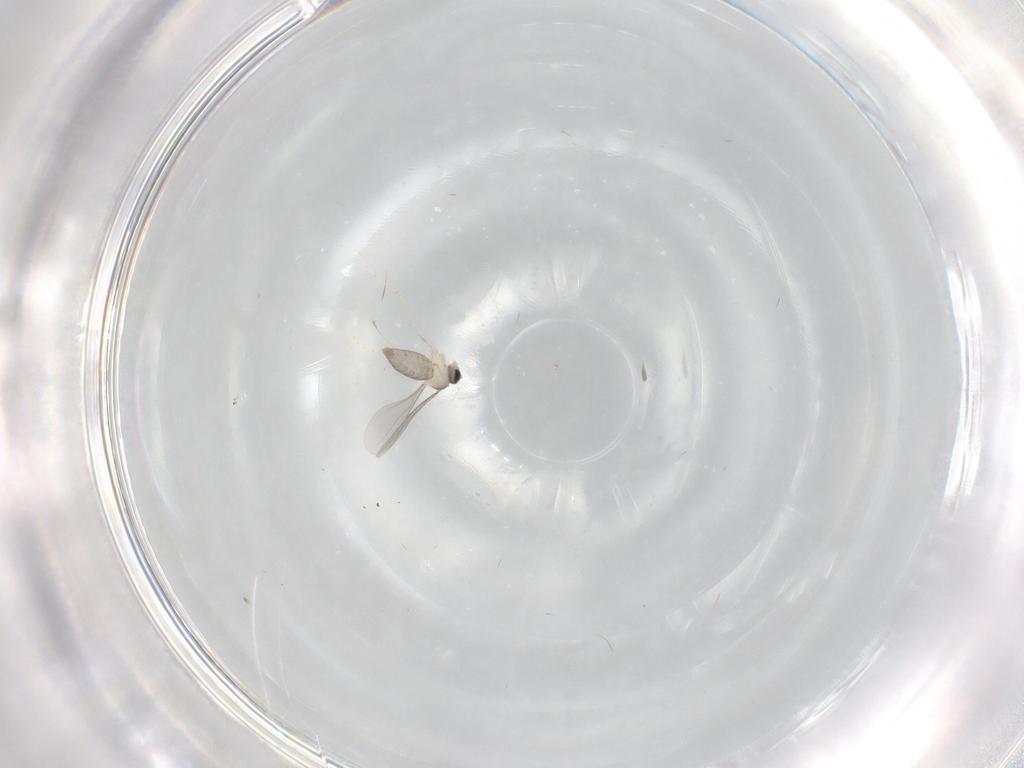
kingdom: Animalia
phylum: Arthropoda
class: Insecta
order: Diptera
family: Cecidomyiidae
